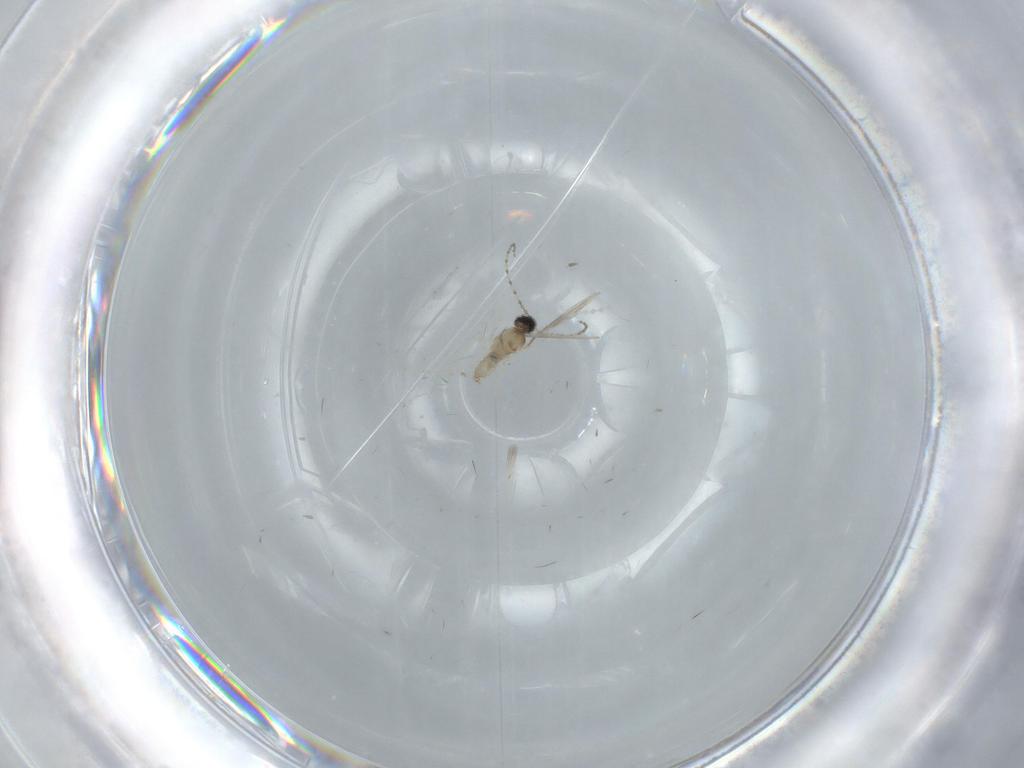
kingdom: Animalia
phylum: Arthropoda
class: Insecta
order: Diptera
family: Cecidomyiidae
